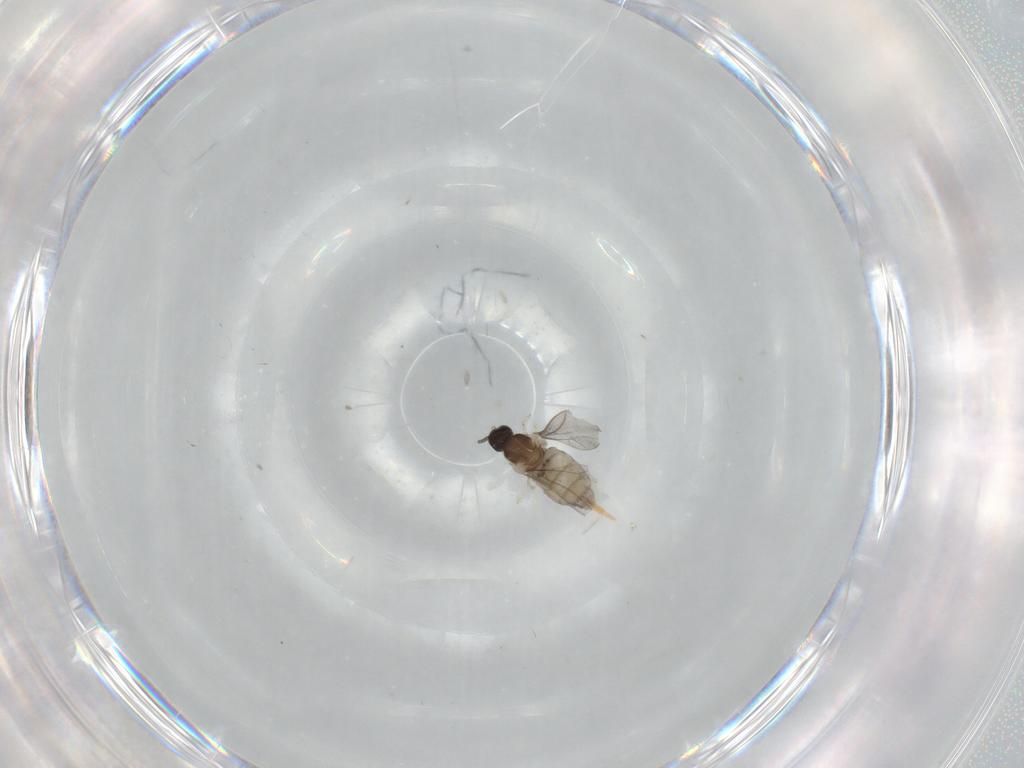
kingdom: Animalia
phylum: Arthropoda
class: Insecta
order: Diptera
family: Cecidomyiidae
